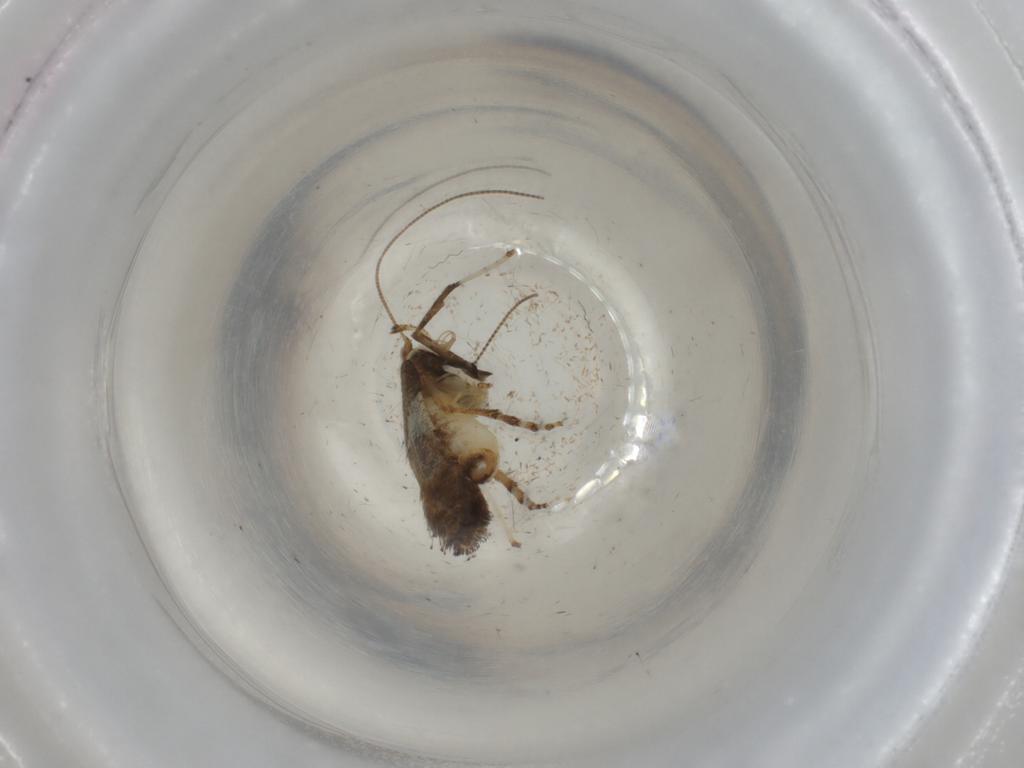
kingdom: Animalia
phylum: Arthropoda
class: Insecta
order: Lepidoptera
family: Gracillariidae
